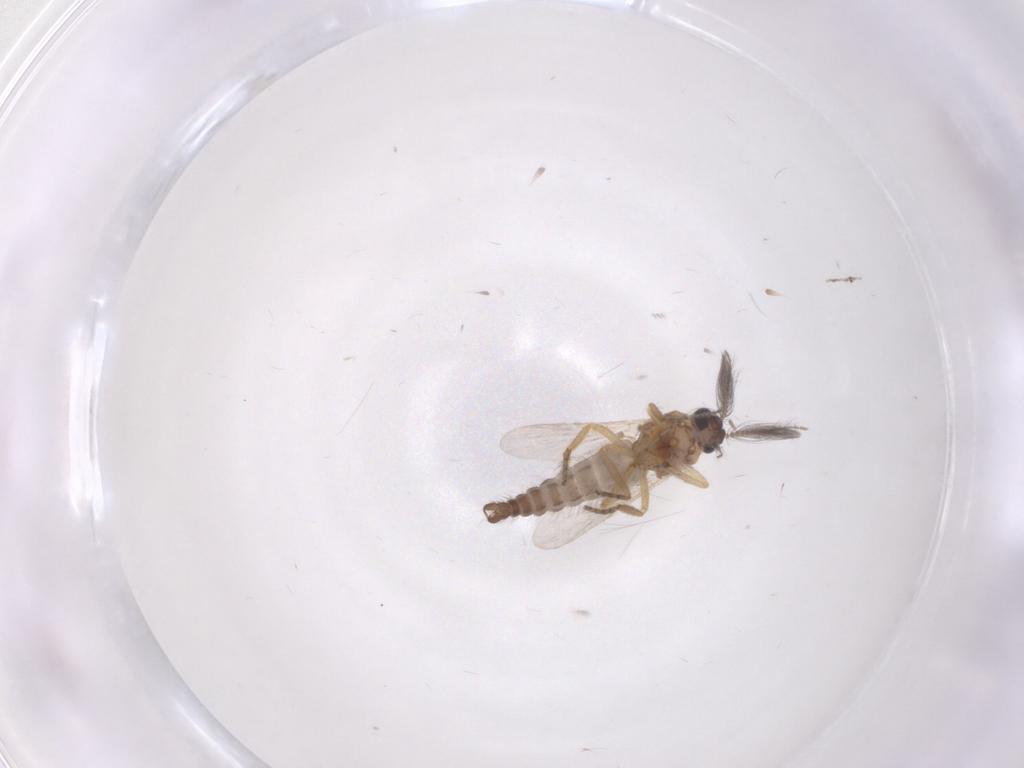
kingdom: Animalia
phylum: Arthropoda
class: Insecta
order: Diptera
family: Ceratopogonidae
